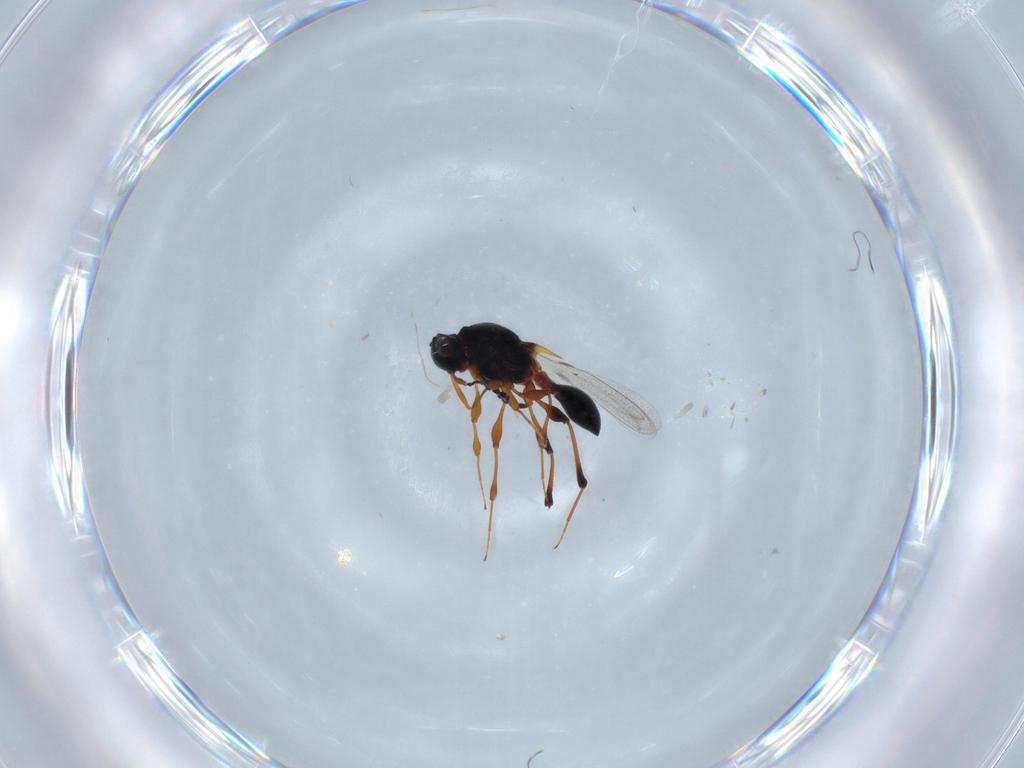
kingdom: Animalia
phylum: Arthropoda
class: Insecta
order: Hymenoptera
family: Platygastridae
